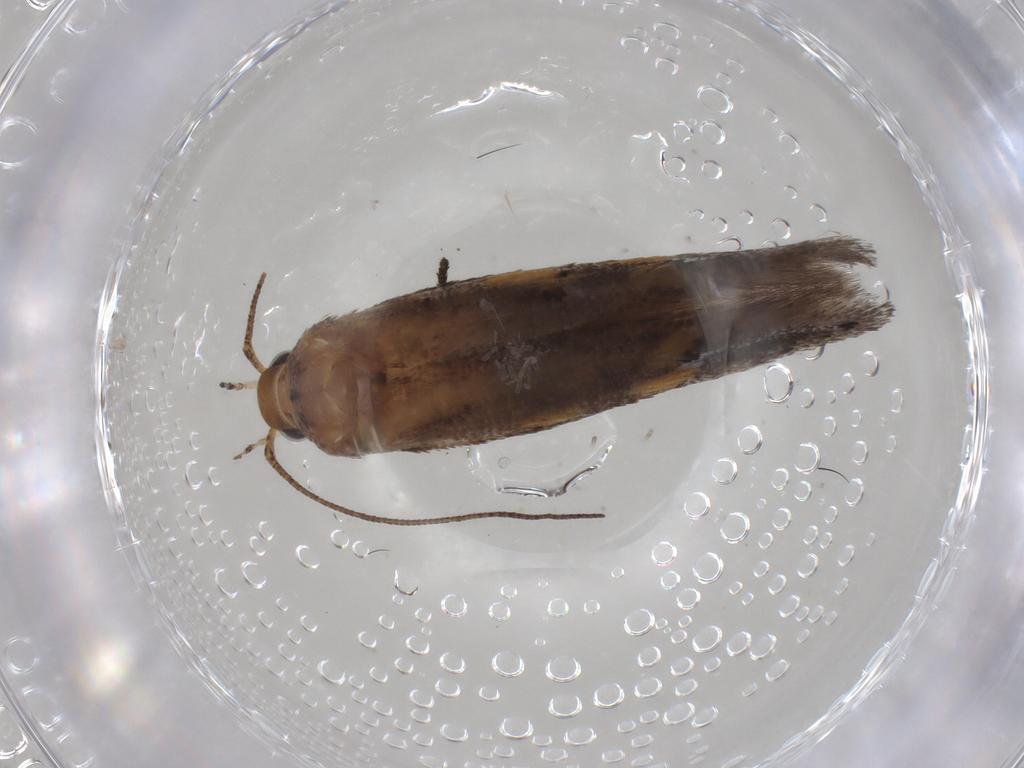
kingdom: Animalia
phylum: Arthropoda
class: Insecta
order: Lepidoptera
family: Gelechiidae
